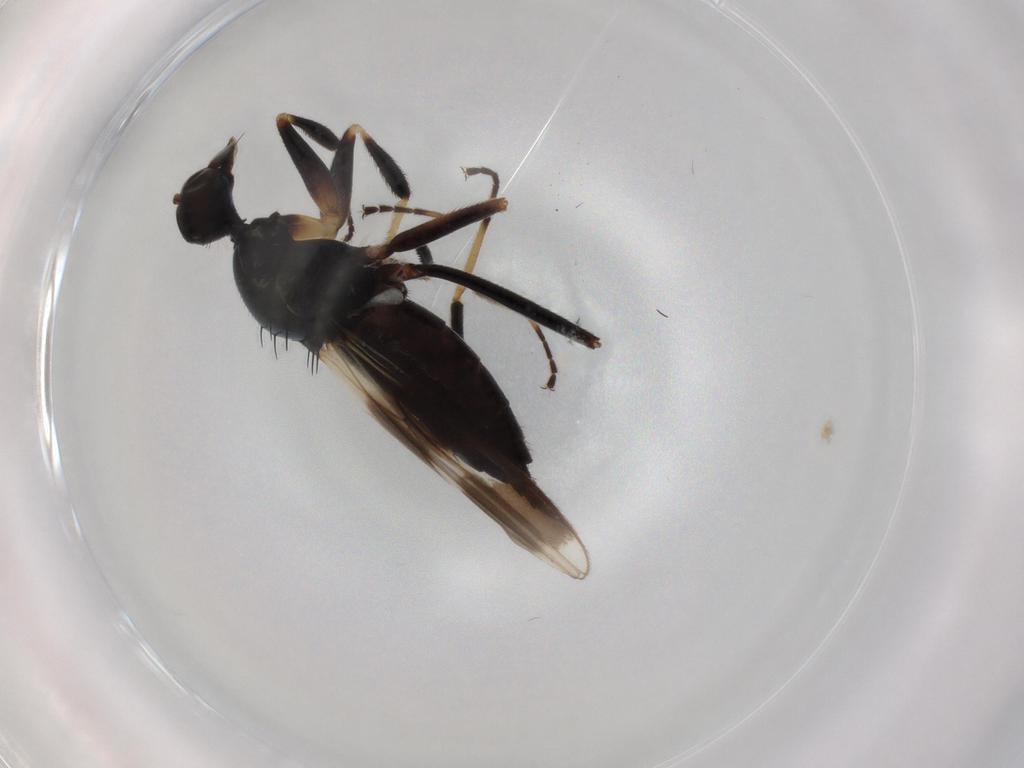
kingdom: Animalia
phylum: Arthropoda
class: Insecta
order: Diptera
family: Hybotidae
